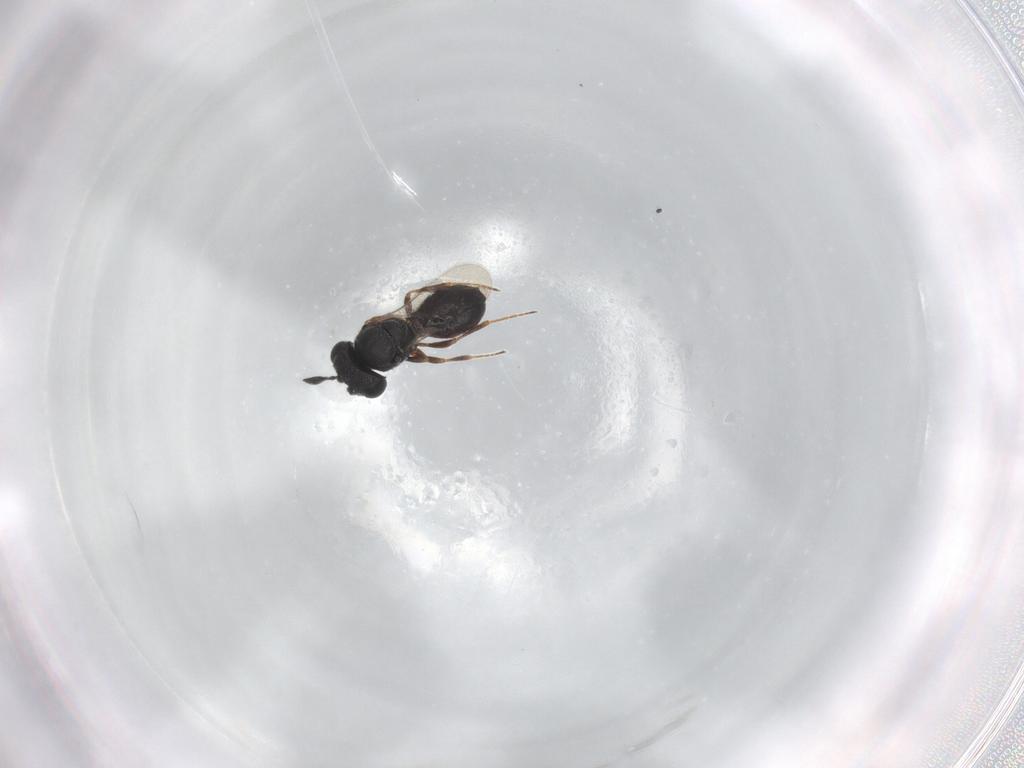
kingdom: Animalia
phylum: Arthropoda
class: Insecta
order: Hymenoptera
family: Scelionidae
